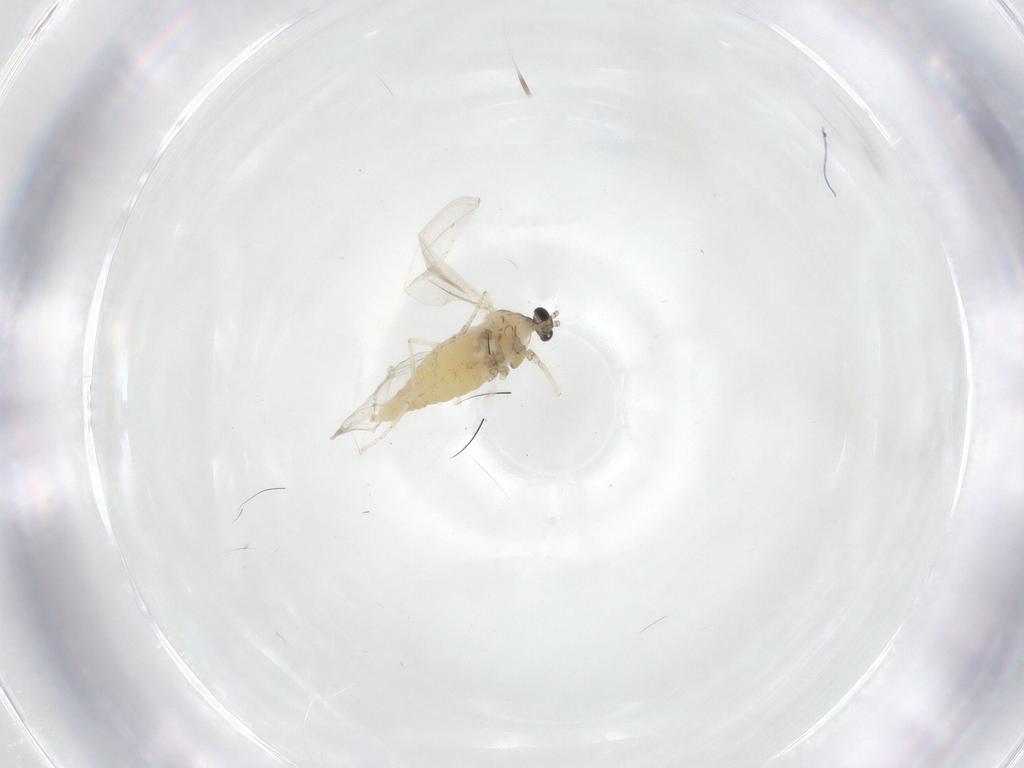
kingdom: Animalia
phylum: Arthropoda
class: Insecta
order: Diptera
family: Cecidomyiidae
